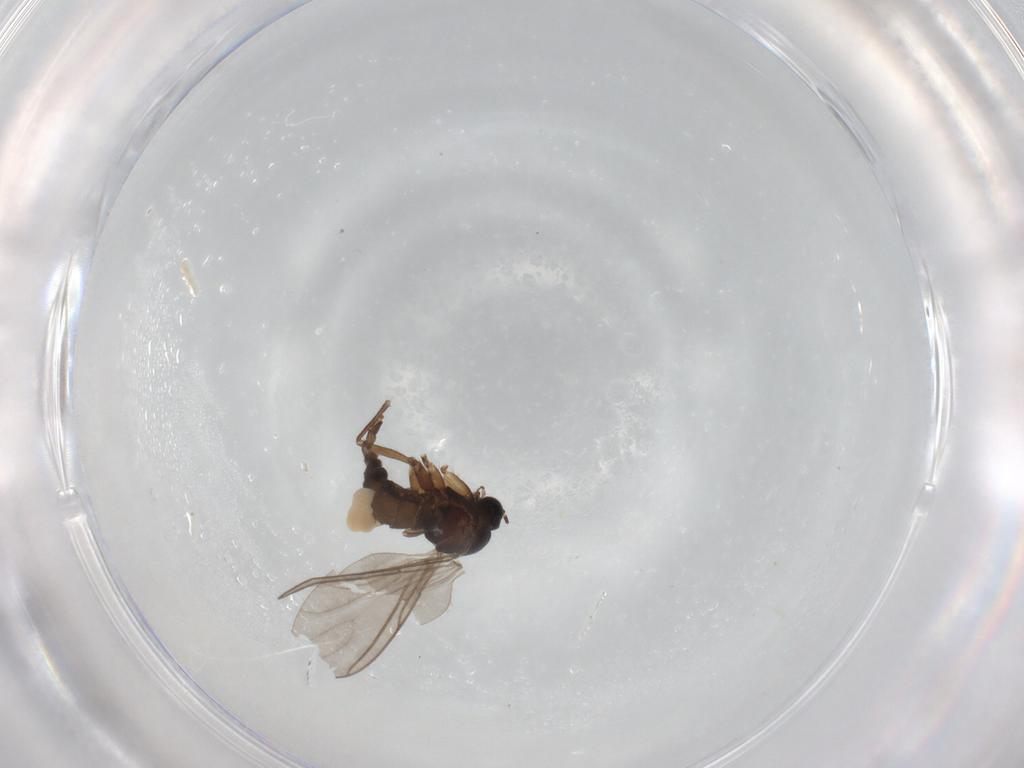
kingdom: Animalia
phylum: Arthropoda
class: Insecta
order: Diptera
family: Sciaridae
